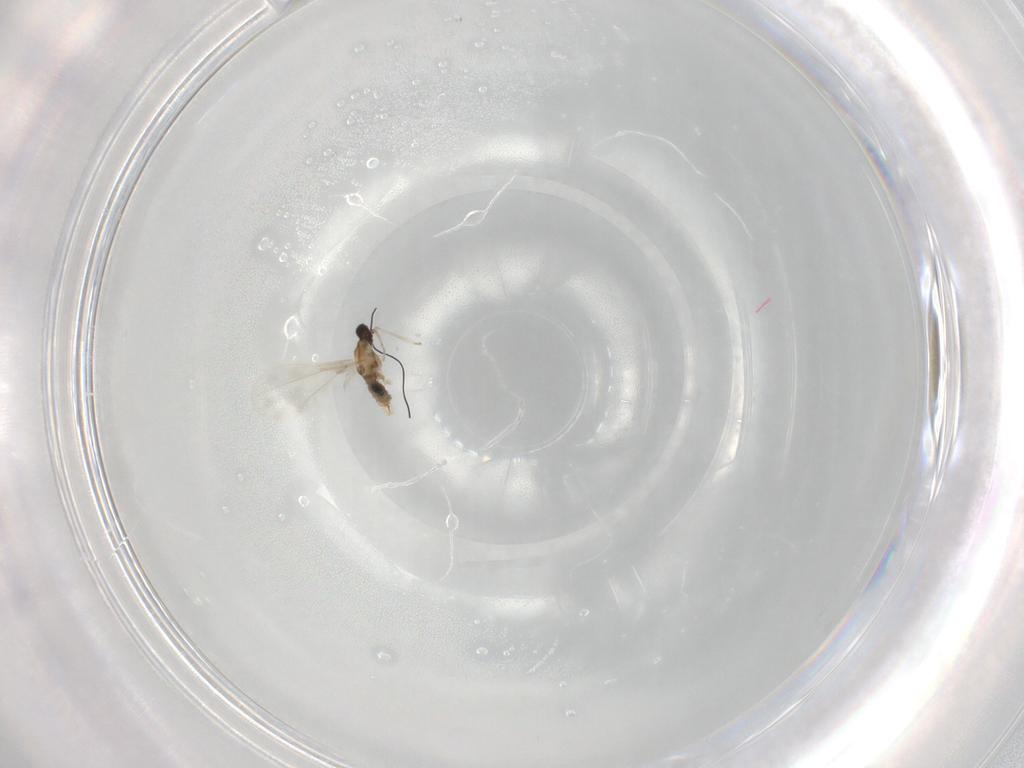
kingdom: Animalia
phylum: Arthropoda
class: Insecta
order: Diptera
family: Cecidomyiidae
